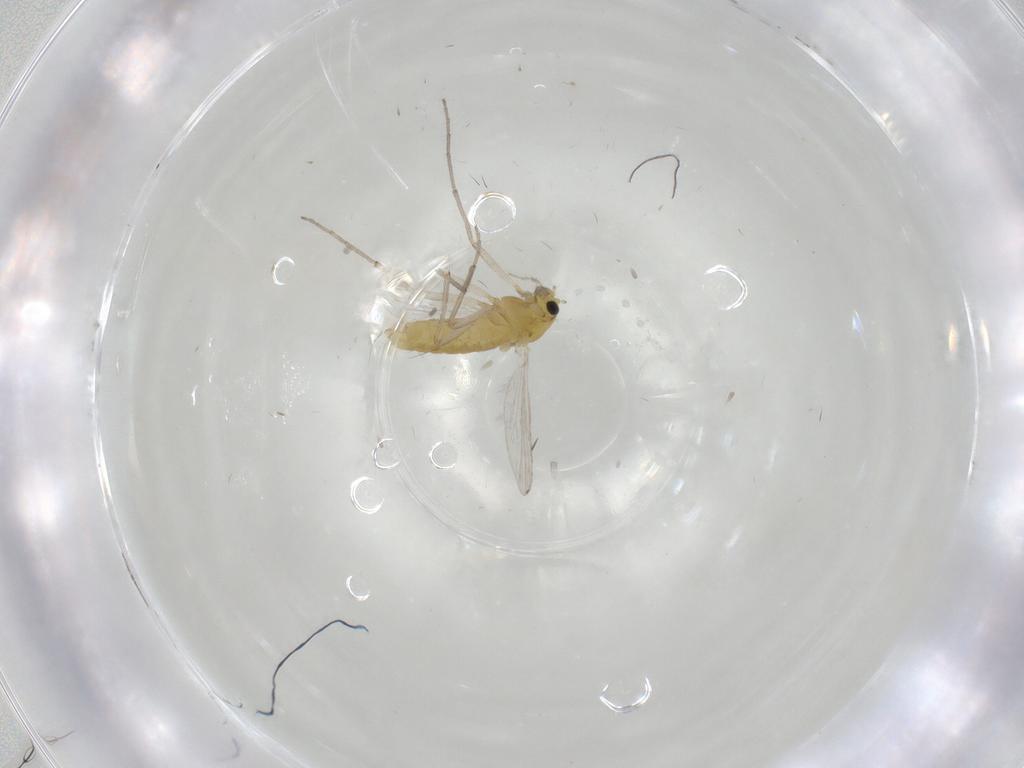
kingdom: Animalia
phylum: Arthropoda
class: Insecta
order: Diptera
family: Chironomidae
